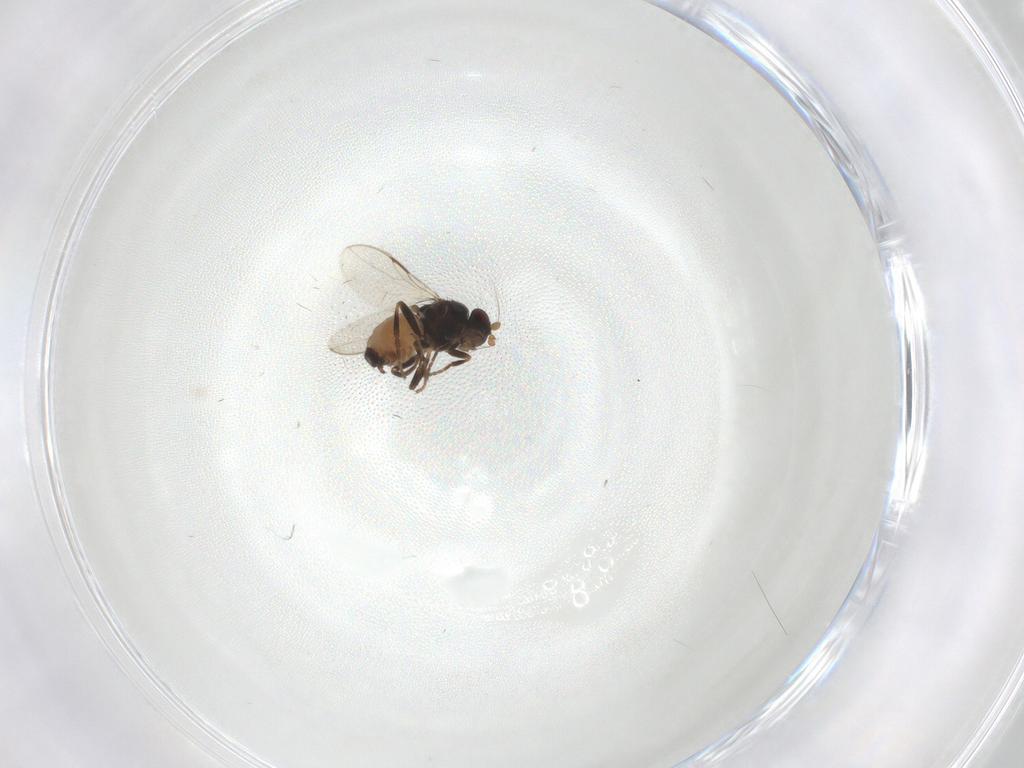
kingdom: Animalia
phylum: Arthropoda
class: Insecta
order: Diptera
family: Sphaeroceridae
